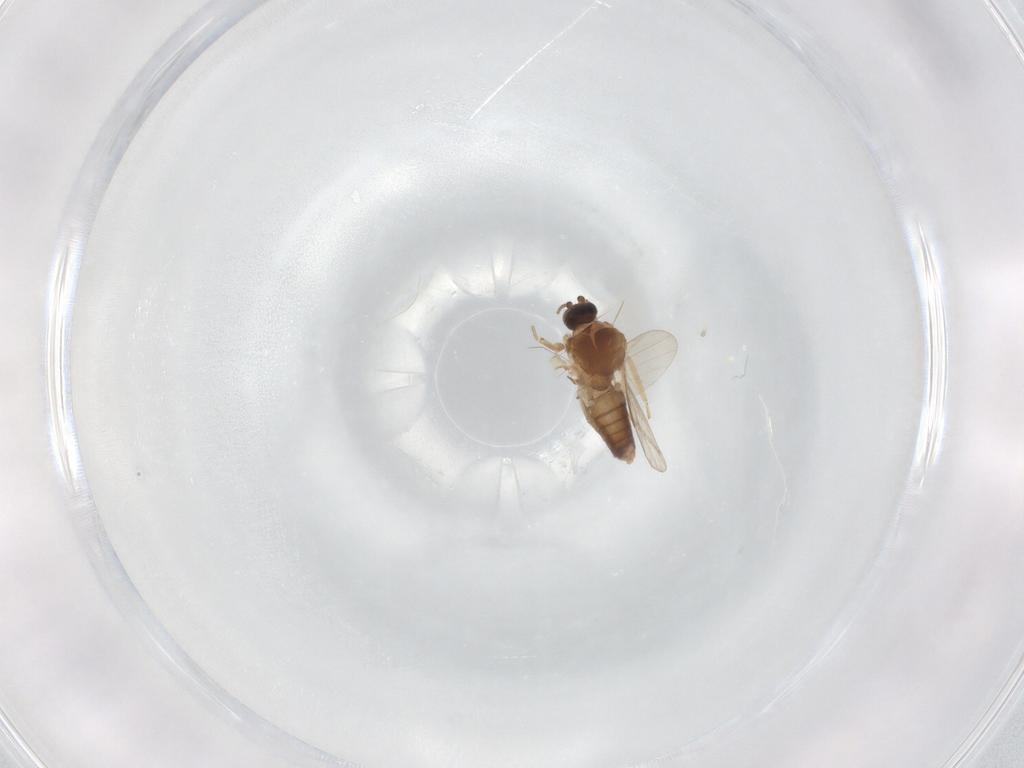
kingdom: Animalia
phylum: Arthropoda
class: Insecta
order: Diptera
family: Ceratopogonidae
